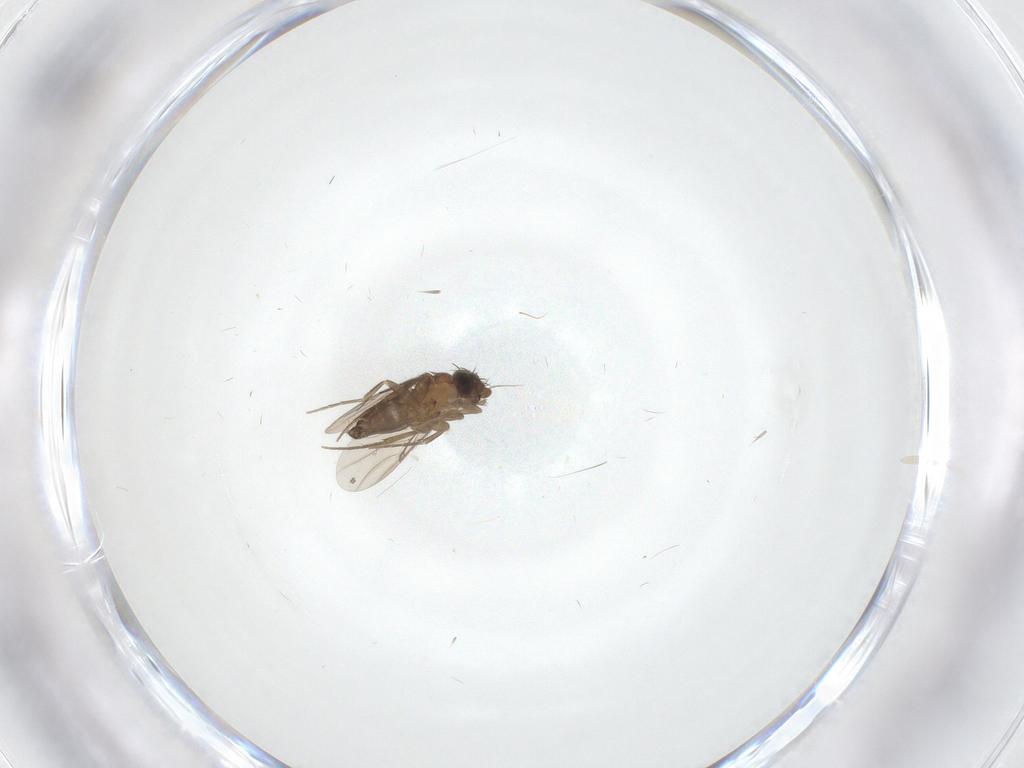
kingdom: Animalia
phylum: Arthropoda
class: Insecta
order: Diptera
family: Phoridae
